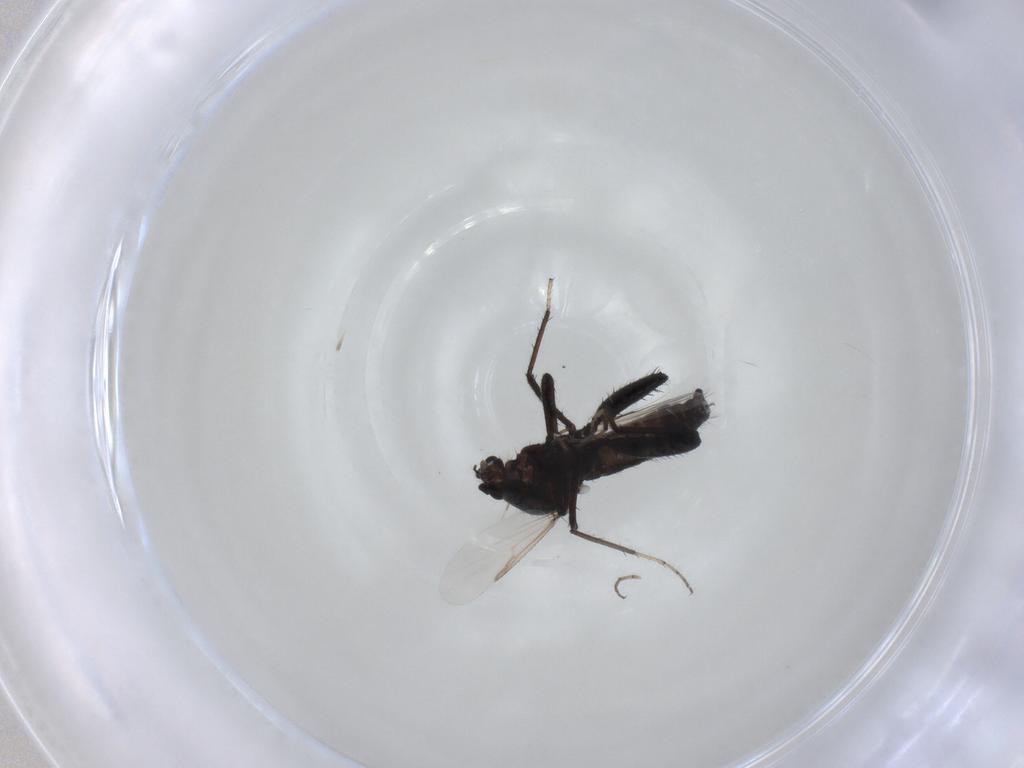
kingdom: Animalia
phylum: Arthropoda
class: Insecta
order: Diptera
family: Ceratopogonidae
